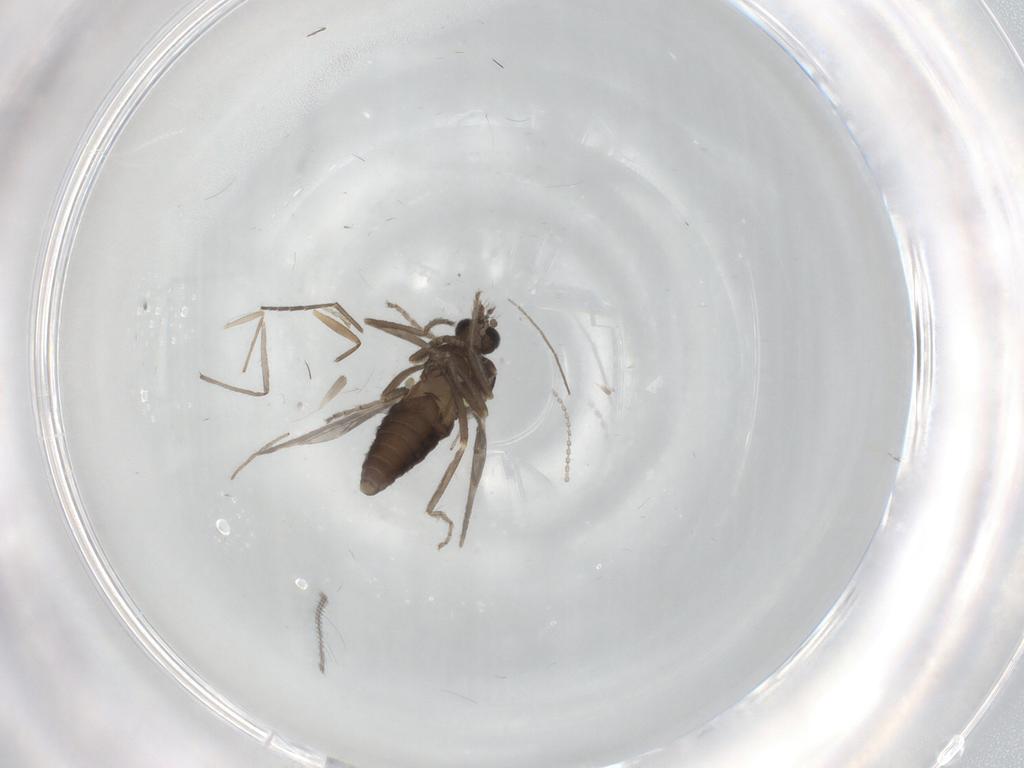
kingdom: Animalia
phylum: Arthropoda
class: Insecta
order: Diptera
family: Ceratopogonidae
